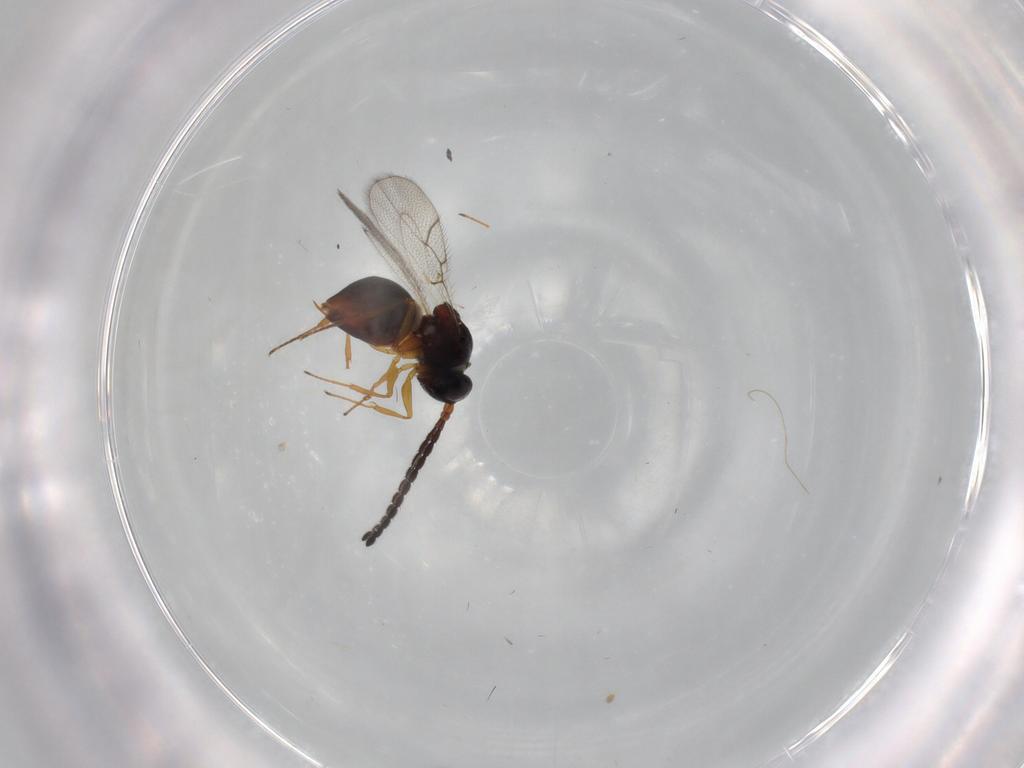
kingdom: Animalia
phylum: Arthropoda
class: Insecta
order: Hymenoptera
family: Figitidae
